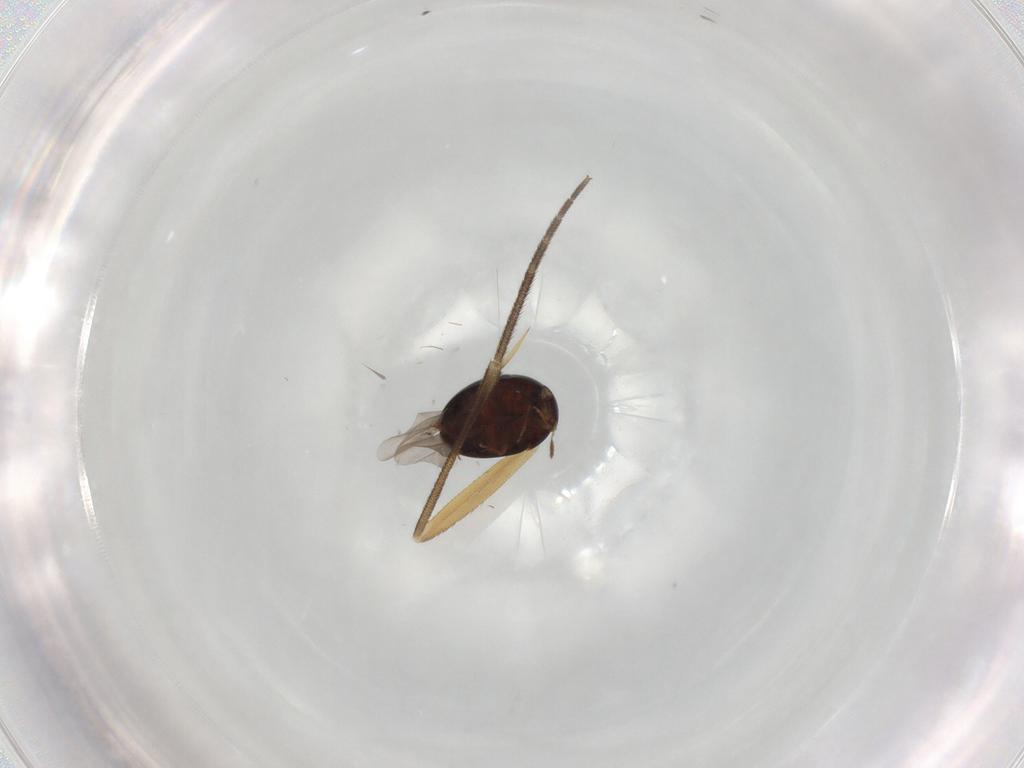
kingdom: Animalia
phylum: Arthropoda
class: Insecta
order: Coleoptera
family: Leiodidae
